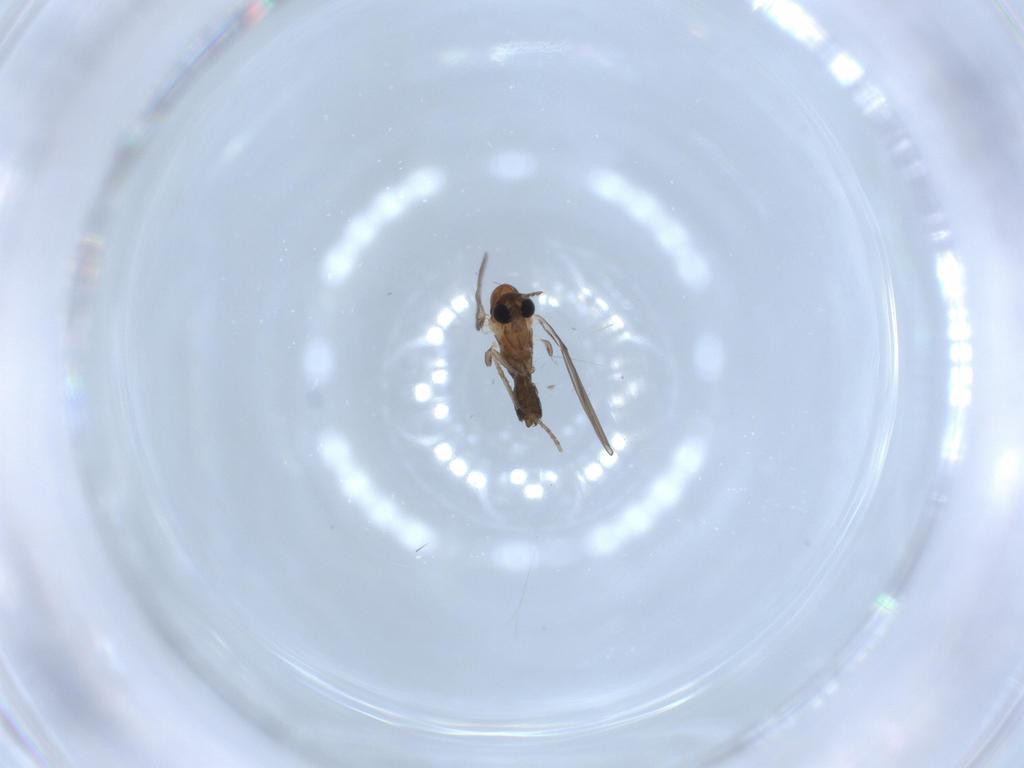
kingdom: Animalia
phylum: Arthropoda
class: Insecta
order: Diptera
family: Psychodidae
